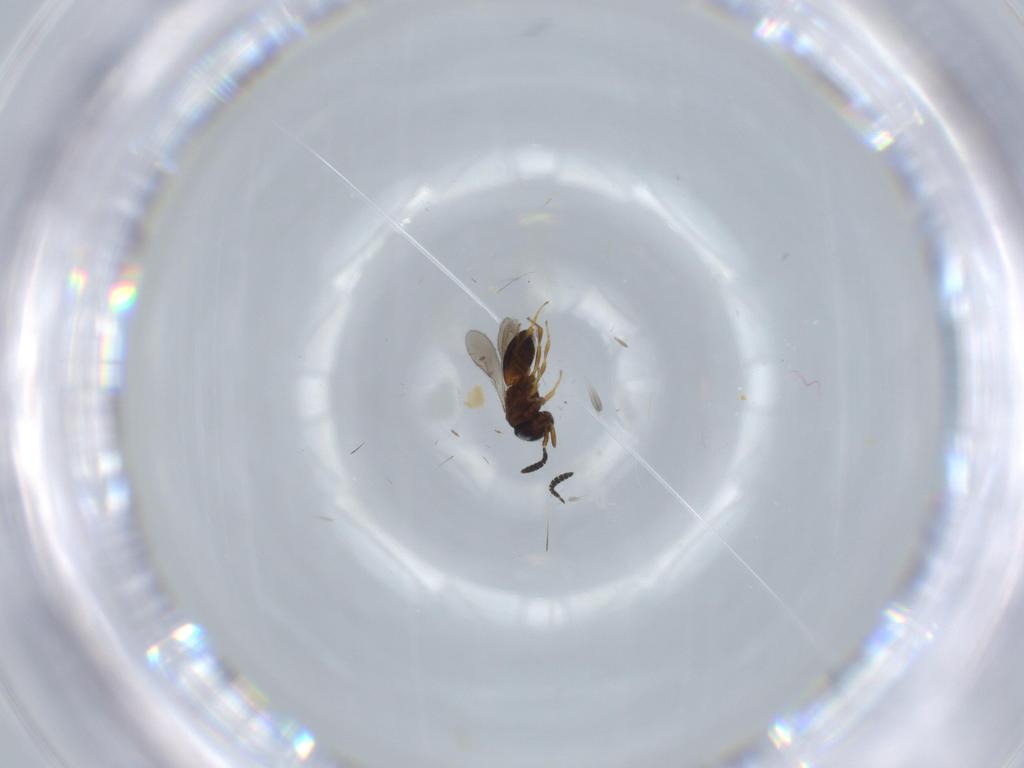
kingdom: Animalia
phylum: Arthropoda
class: Insecta
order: Hymenoptera
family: Scelionidae
